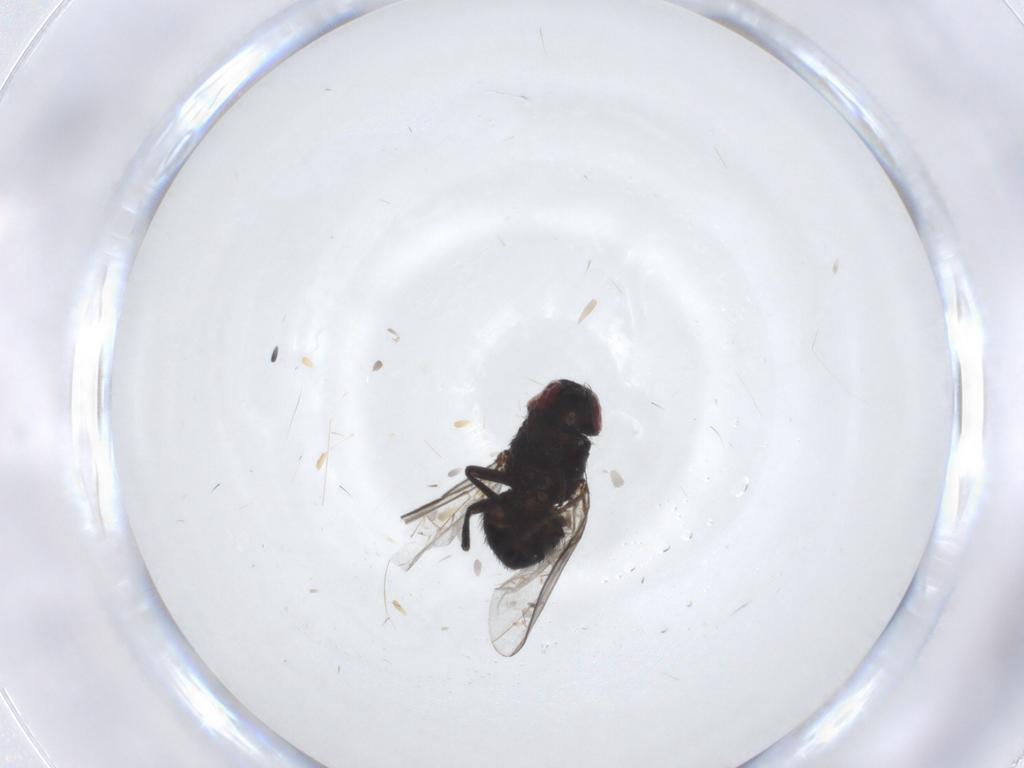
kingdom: Animalia
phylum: Arthropoda
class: Insecta
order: Diptera
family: Agromyzidae
